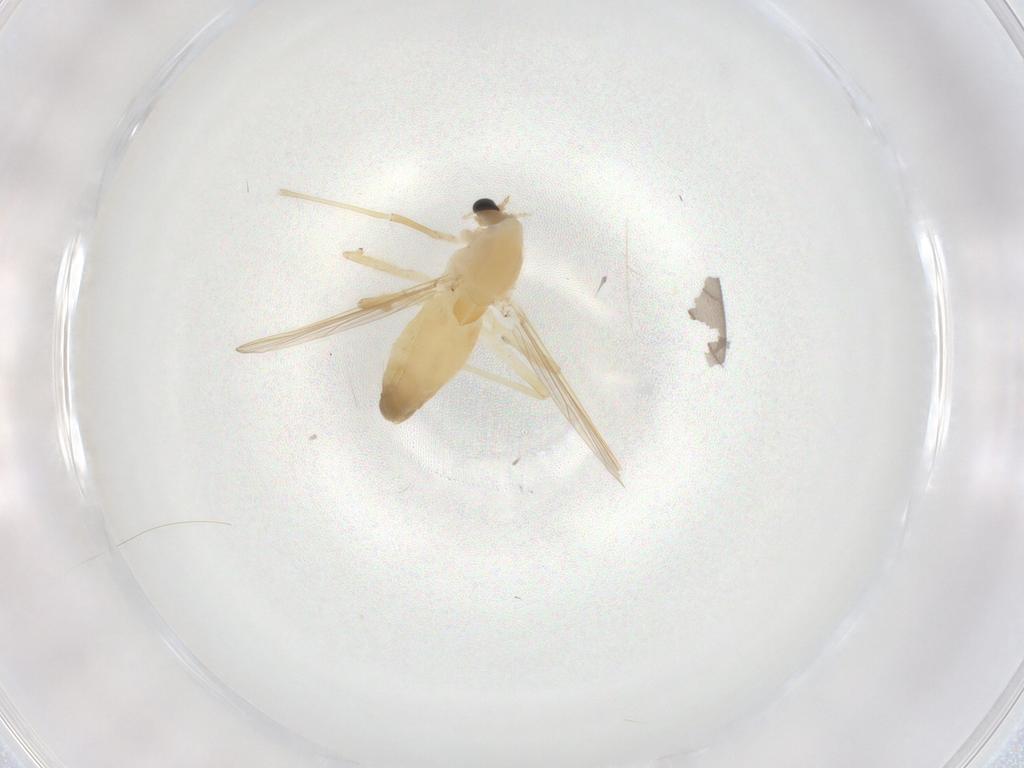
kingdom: Animalia
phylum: Arthropoda
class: Insecta
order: Diptera
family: Chironomidae
